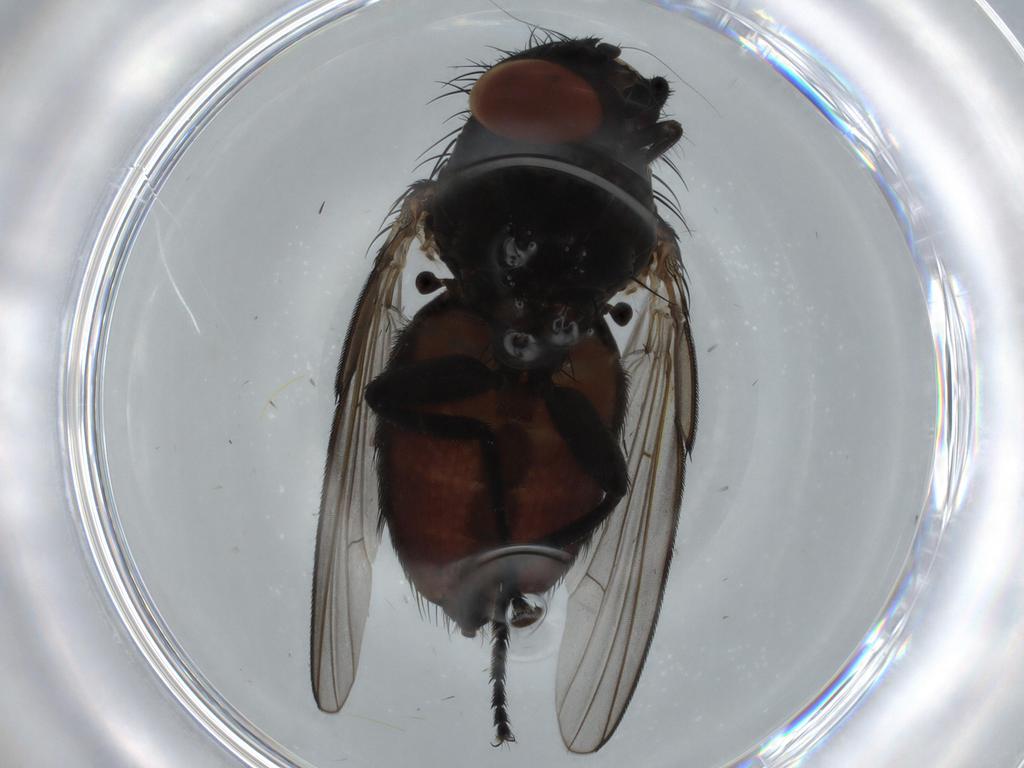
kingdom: Animalia
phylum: Arthropoda
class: Insecta
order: Diptera
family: Milichiidae
